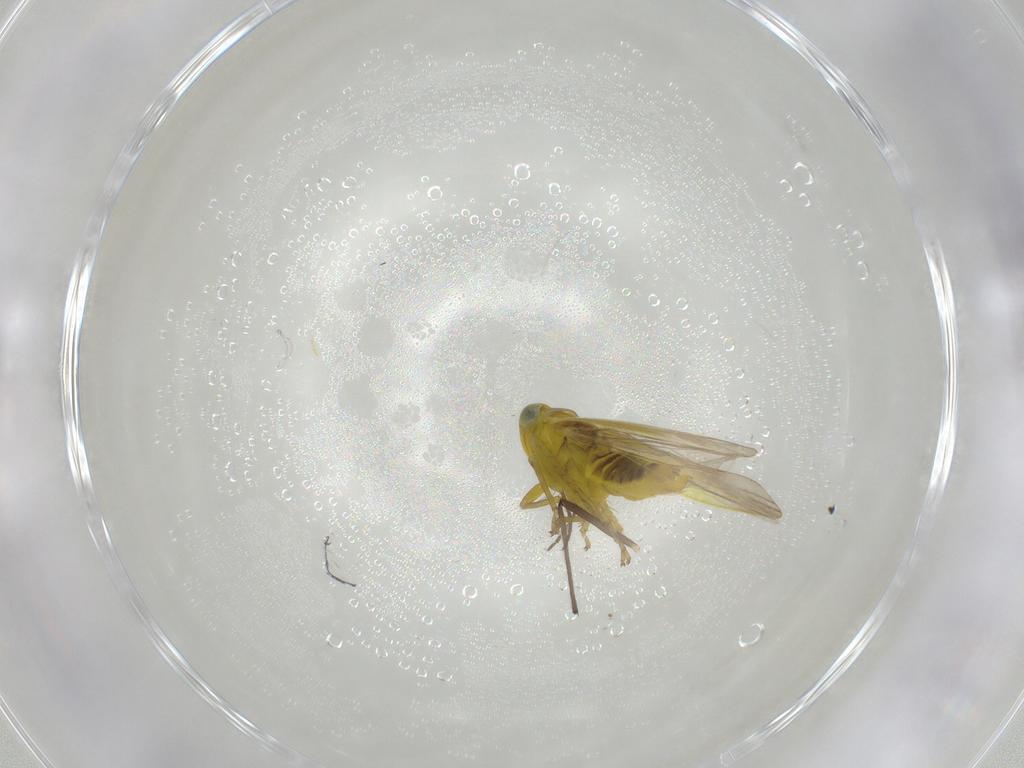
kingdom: Animalia
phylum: Arthropoda
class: Insecta
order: Hemiptera
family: Cicadellidae
